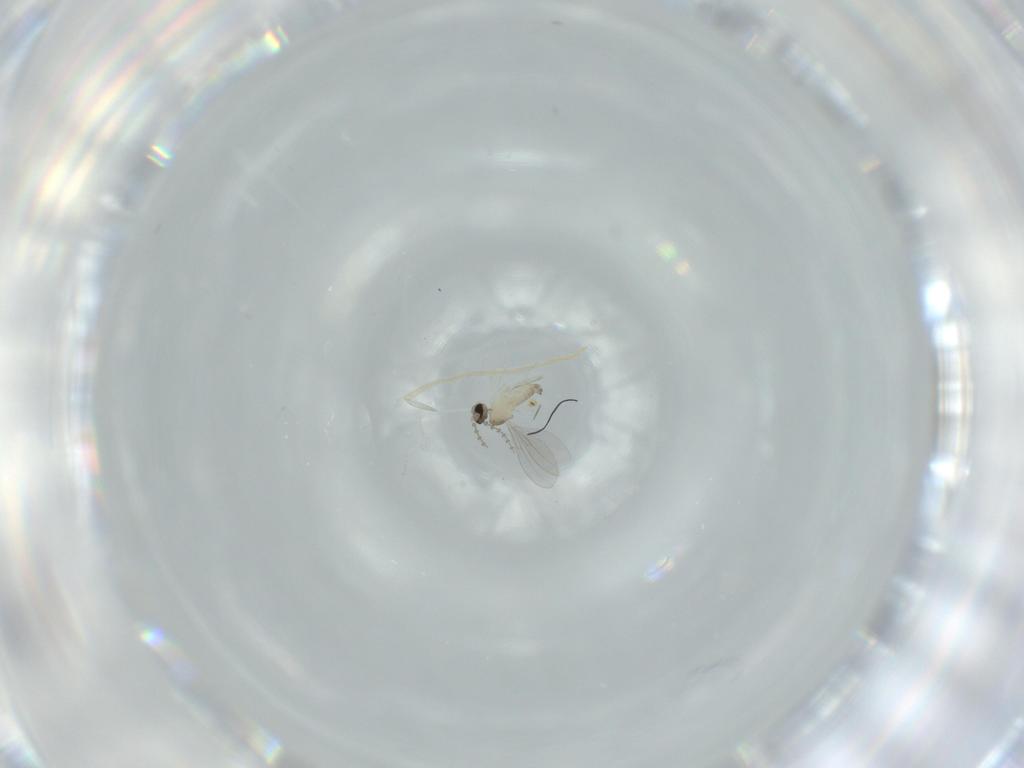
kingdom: Animalia
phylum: Arthropoda
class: Insecta
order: Diptera
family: Cecidomyiidae
